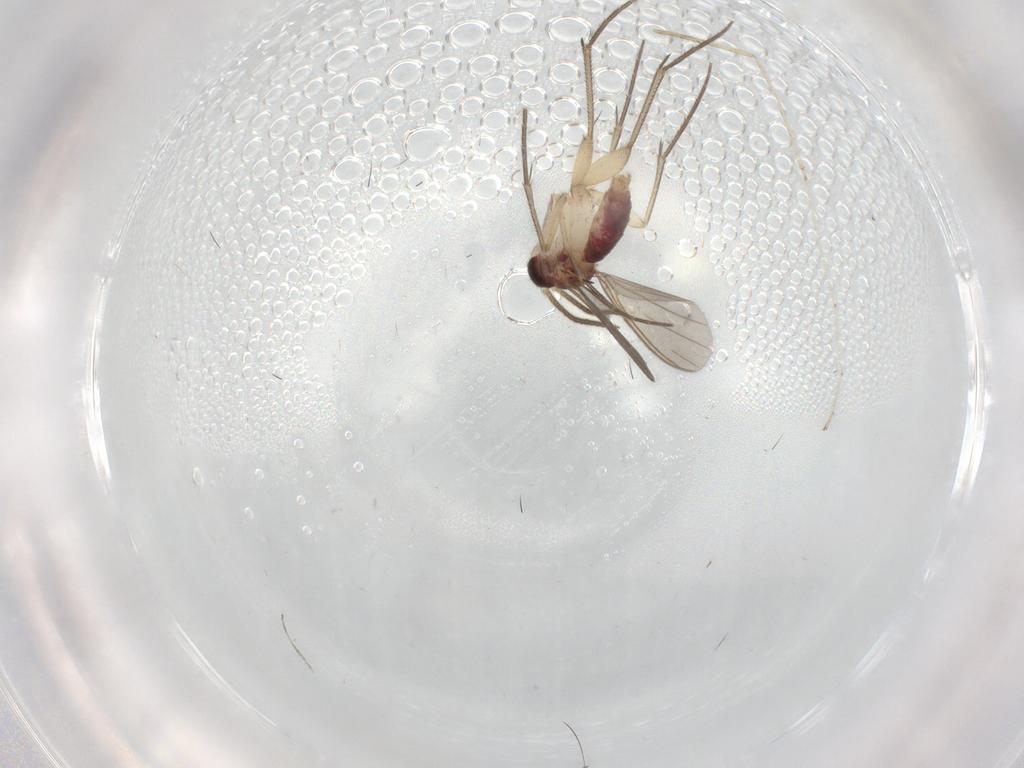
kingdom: Animalia
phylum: Arthropoda
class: Insecta
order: Diptera
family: Mycetophilidae
